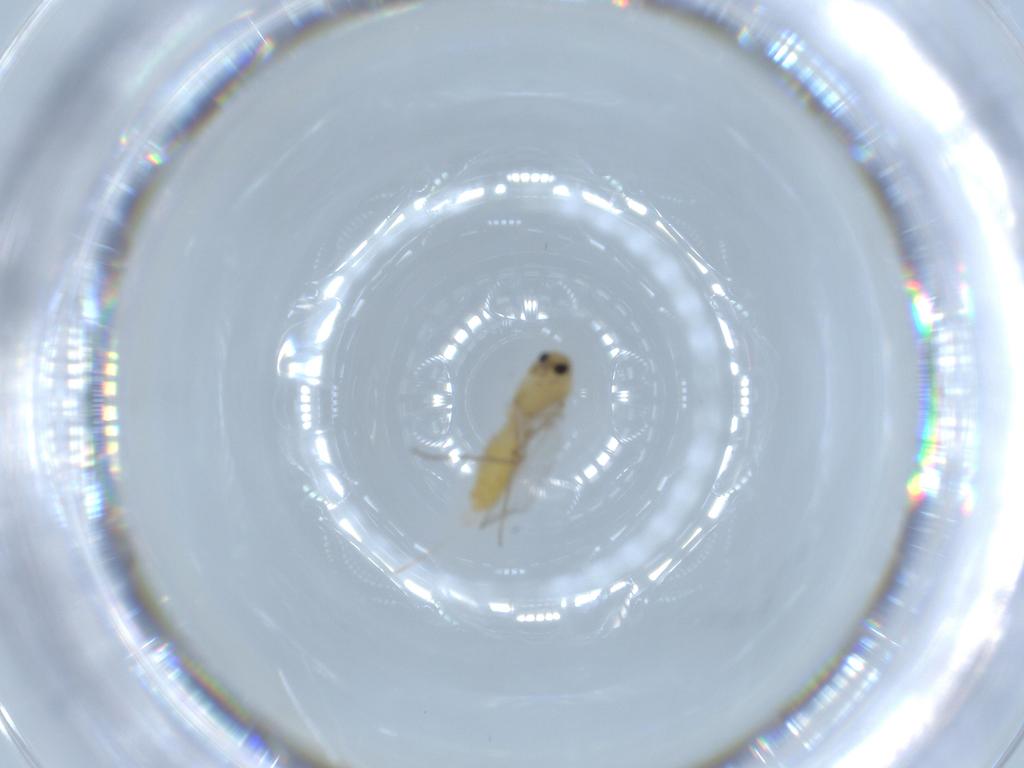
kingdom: Animalia
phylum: Arthropoda
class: Insecta
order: Diptera
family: Chironomidae
